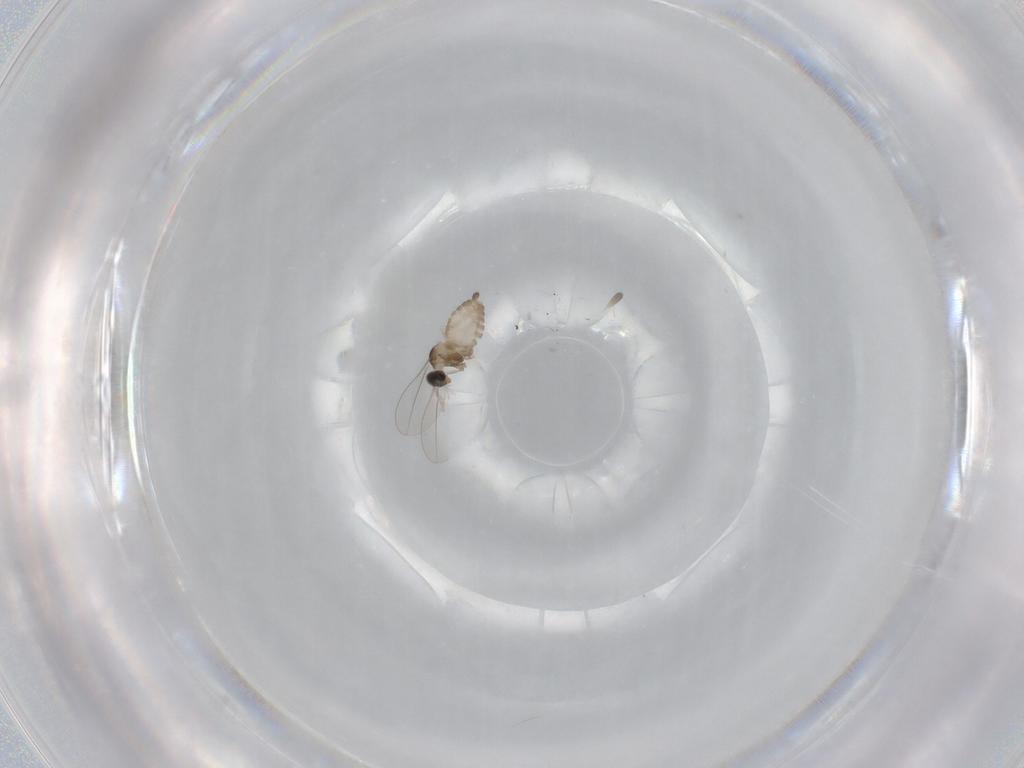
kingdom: Animalia
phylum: Arthropoda
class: Insecta
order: Diptera
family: Cecidomyiidae
